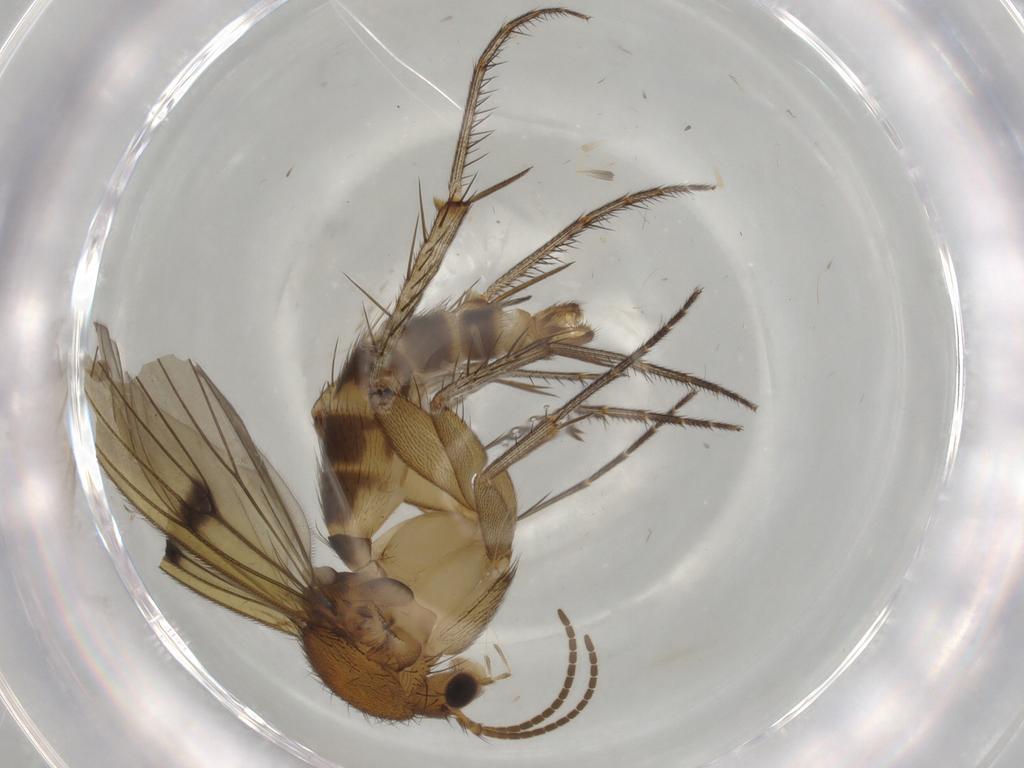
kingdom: Animalia
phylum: Arthropoda
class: Insecta
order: Diptera
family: Mycetophilidae
